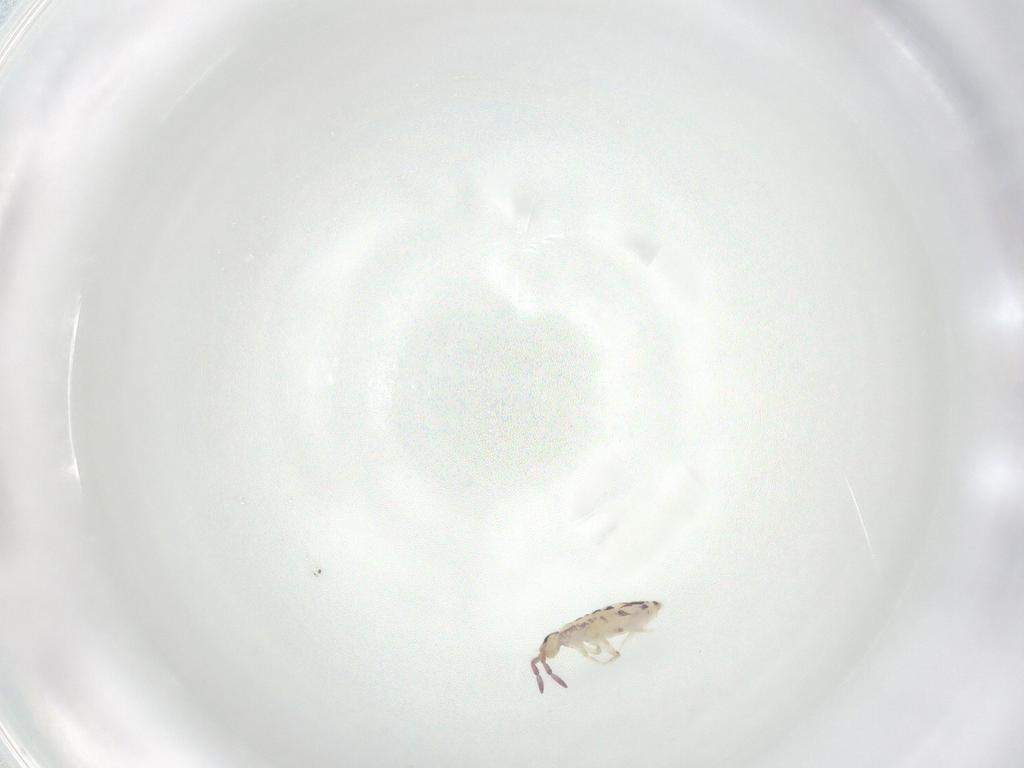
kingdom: Animalia
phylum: Arthropoda
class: Collembola
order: Entomobryomorpha
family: Entomobryidae
